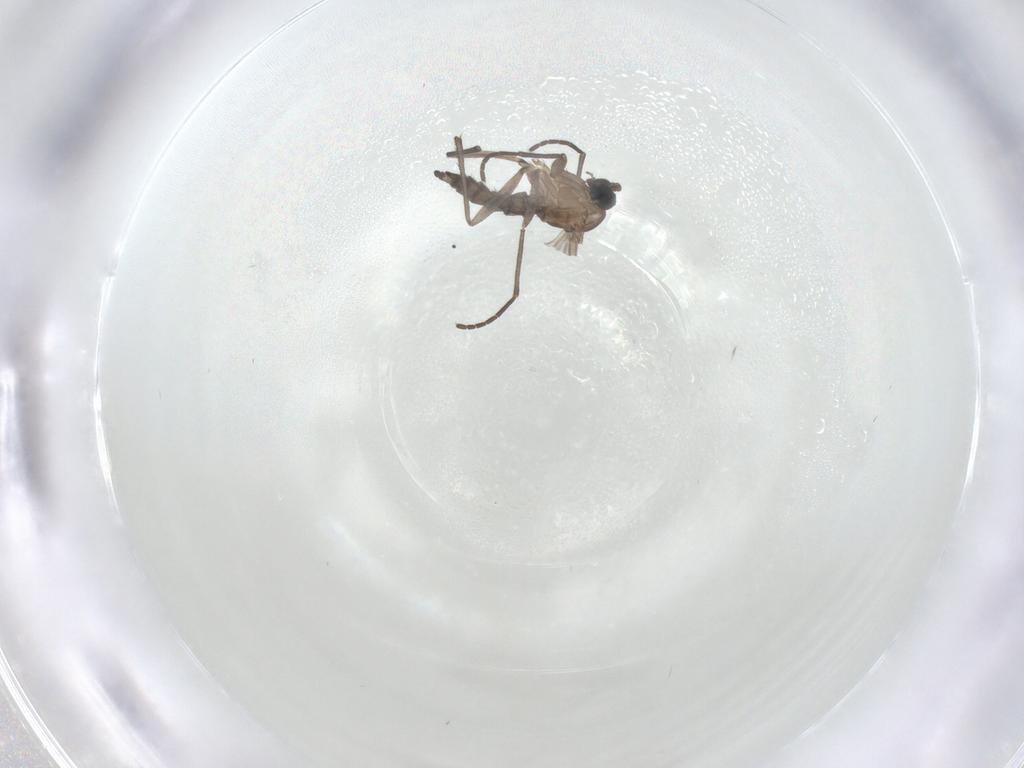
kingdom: Animalia
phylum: Arthropoda
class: Insecta
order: Diptera
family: Chironomidae
